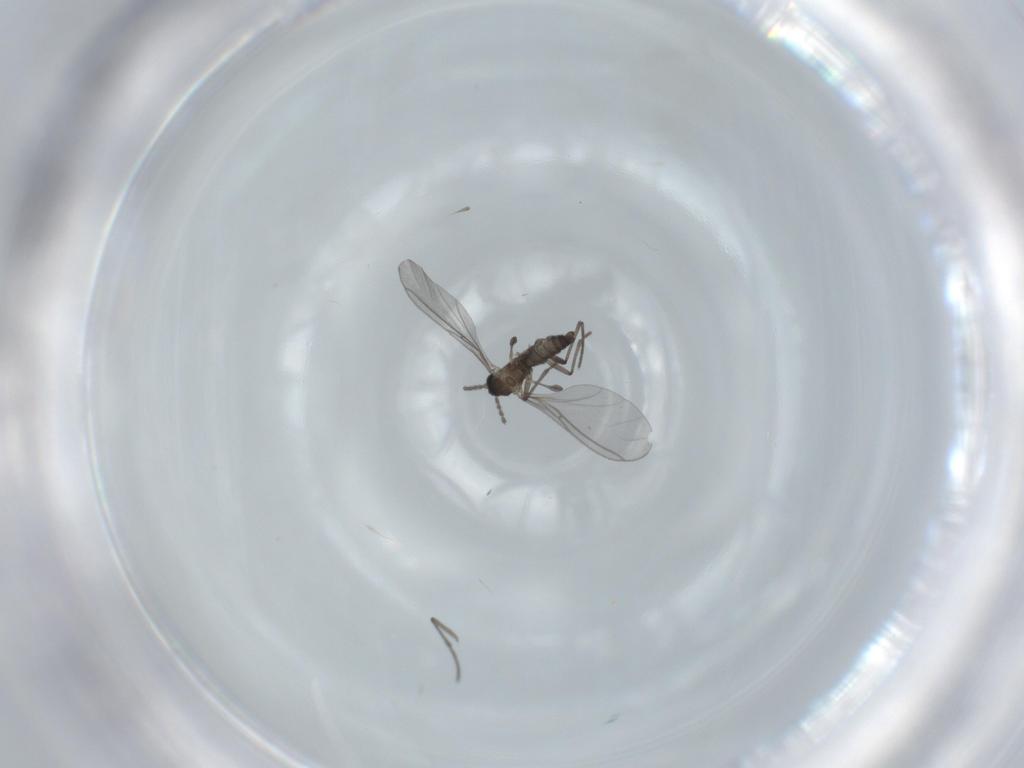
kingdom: Animalia
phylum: Arthropoda
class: Insecta
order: Diptera
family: Sciaridae
